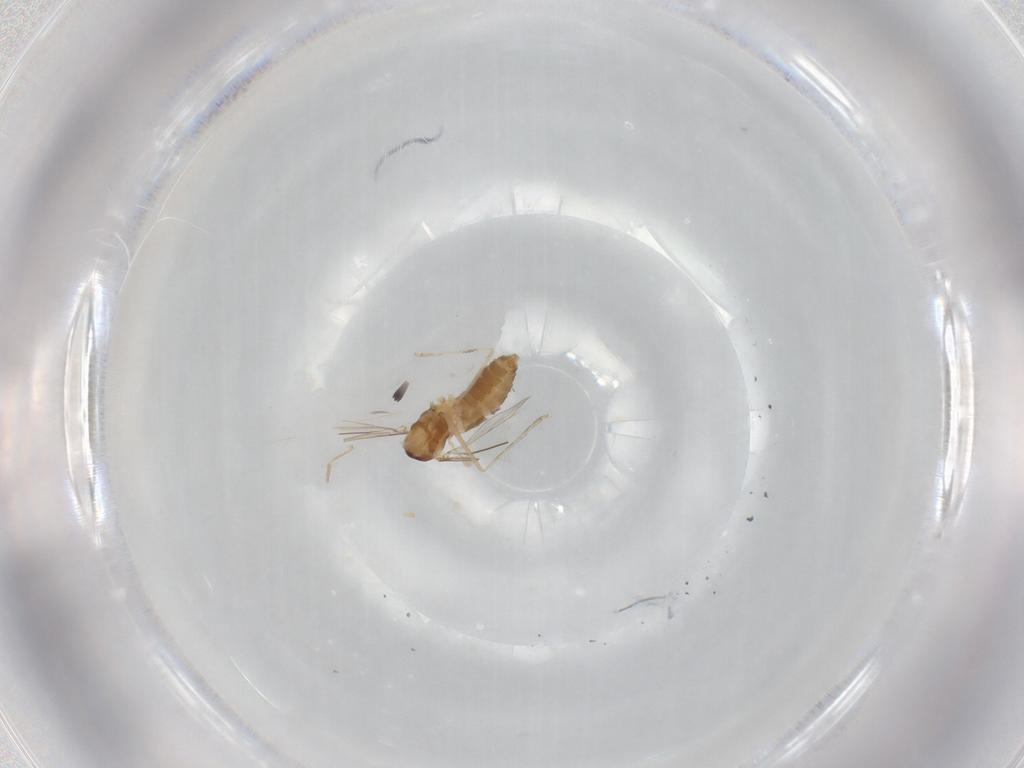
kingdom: Animalia
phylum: Arthropoda
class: Insecta
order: Diptera
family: Cecidomyiidae
